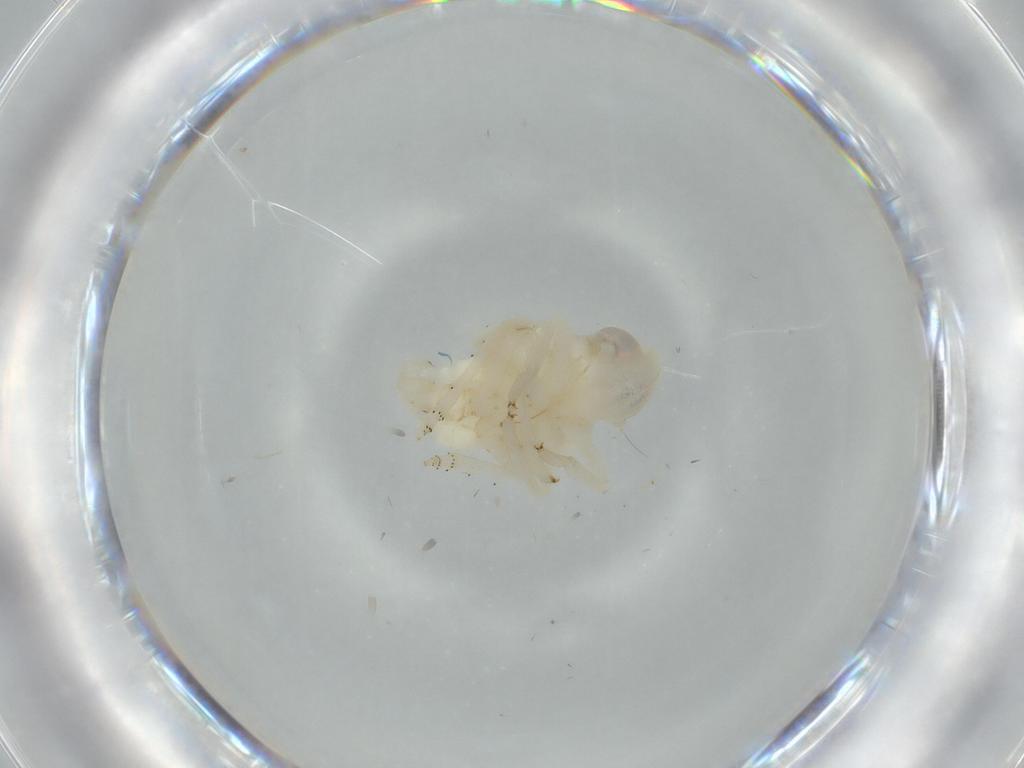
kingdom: Animalia
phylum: Arthropoda
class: Insecta
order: Hemiptera
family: Nogodinidae
